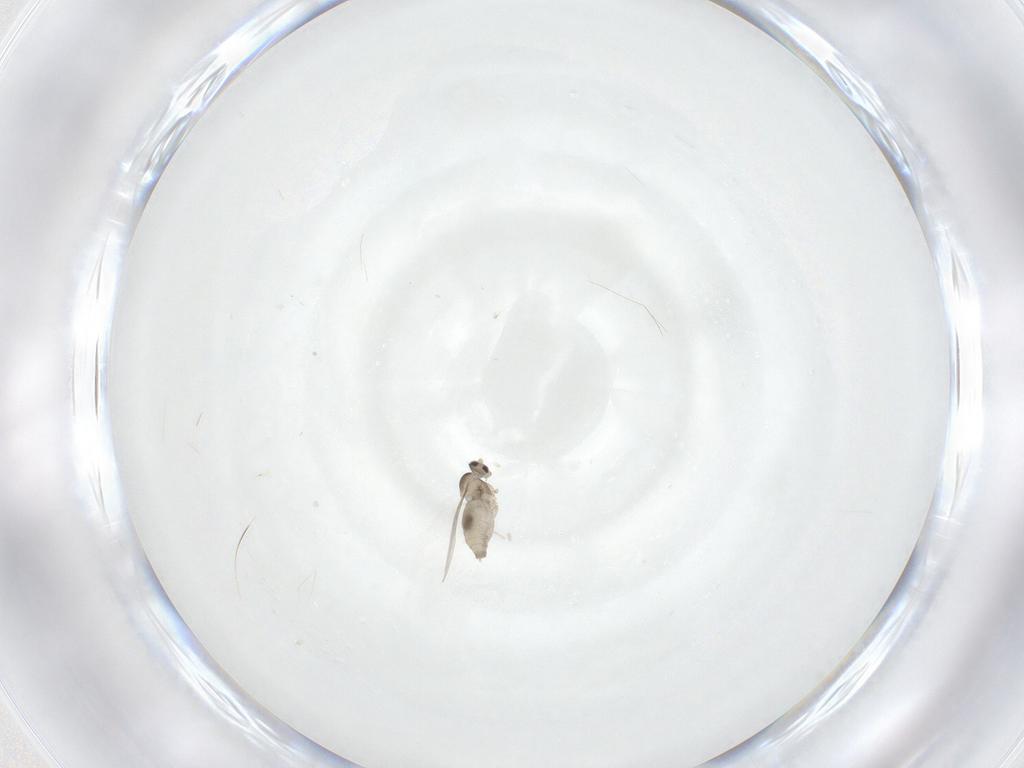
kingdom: Animalia
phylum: Arthropoda
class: Insecta
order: Diptera
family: Cecidomyiidae
